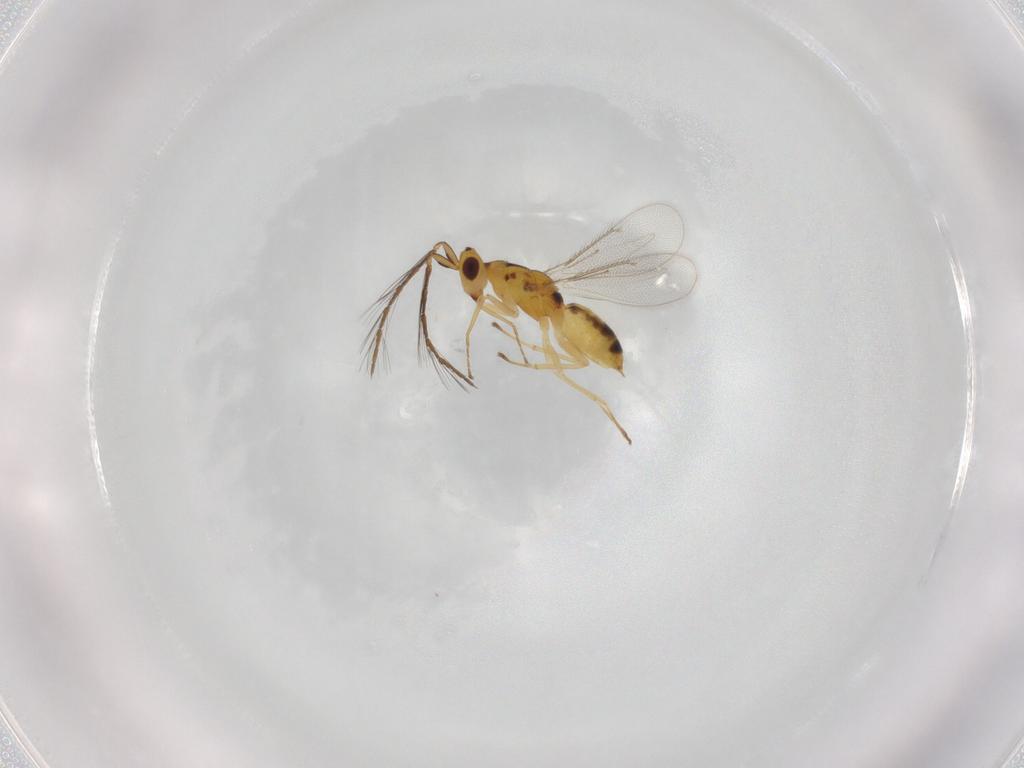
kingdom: Animalia
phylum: Arthropoda
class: Insecta
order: Hymenoptera
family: Eulophidae
